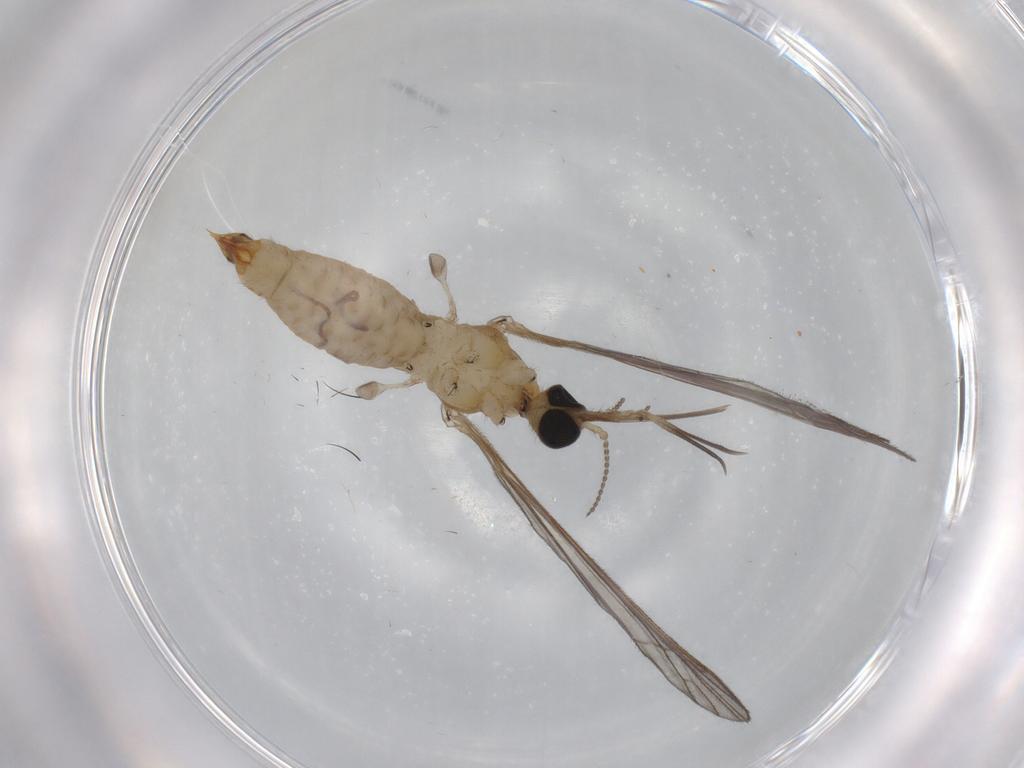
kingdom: Animalia
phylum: Arthropoda
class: Insecta
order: Diptera
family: Limoniidae
